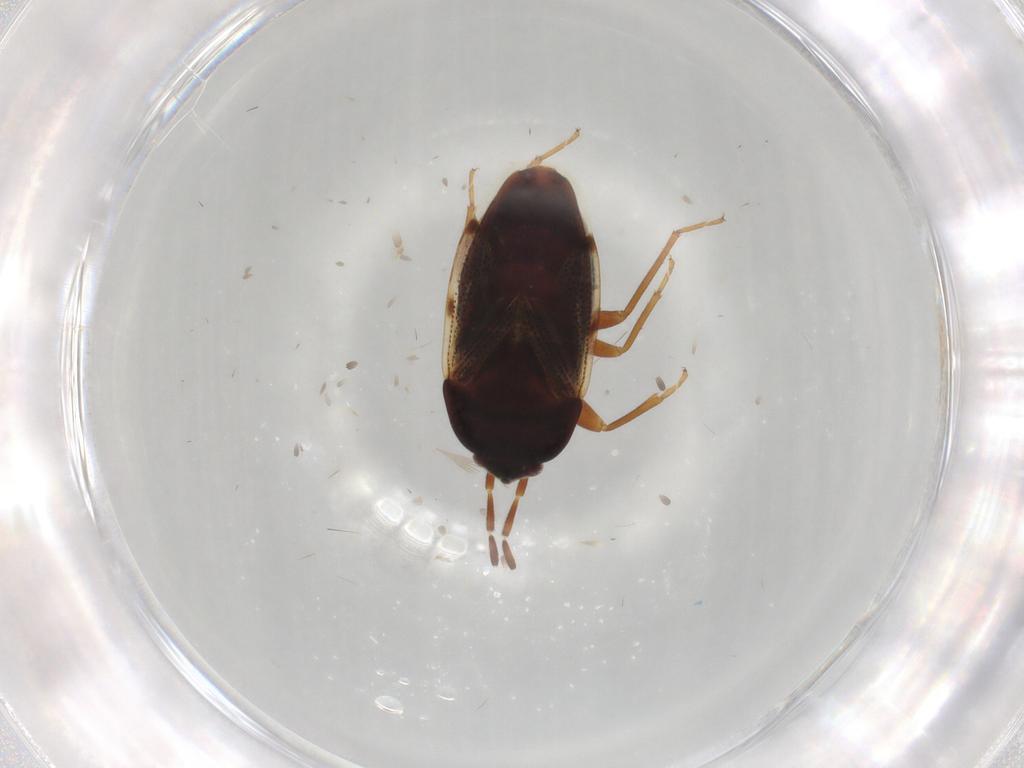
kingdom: Animalia
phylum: Arthropoda
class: Insecta
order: Hemiptera
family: Rhyparochromidae
